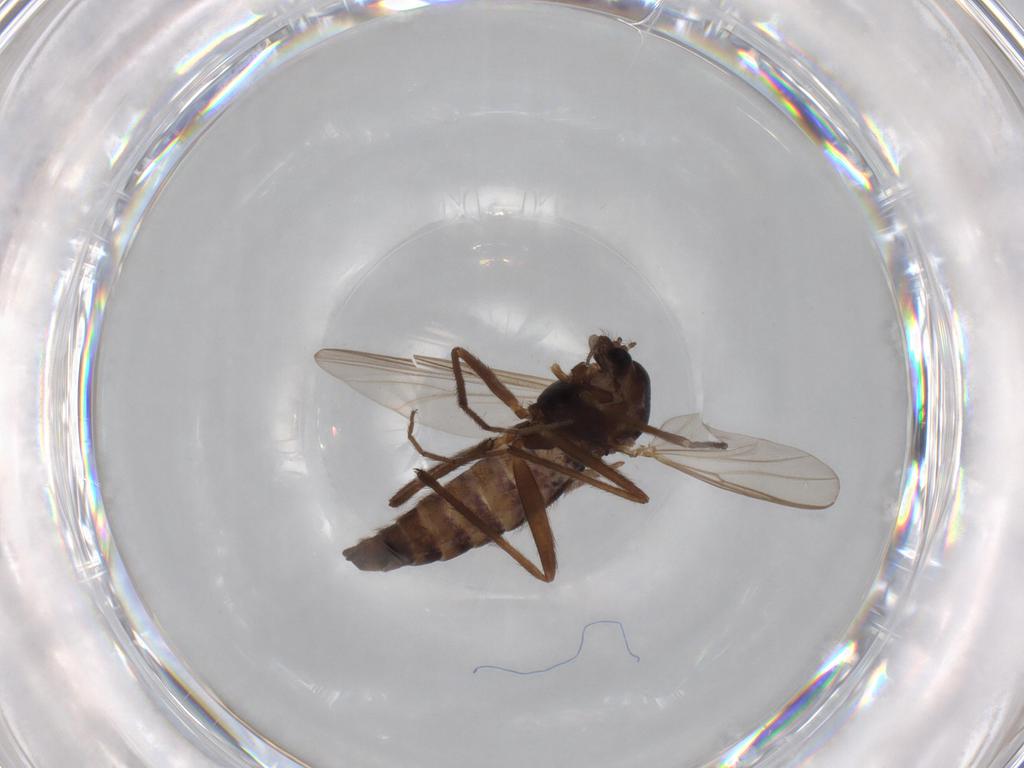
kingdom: Animalia
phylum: Arthropoda
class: Insecta
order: Diptera
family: Chironomidae
